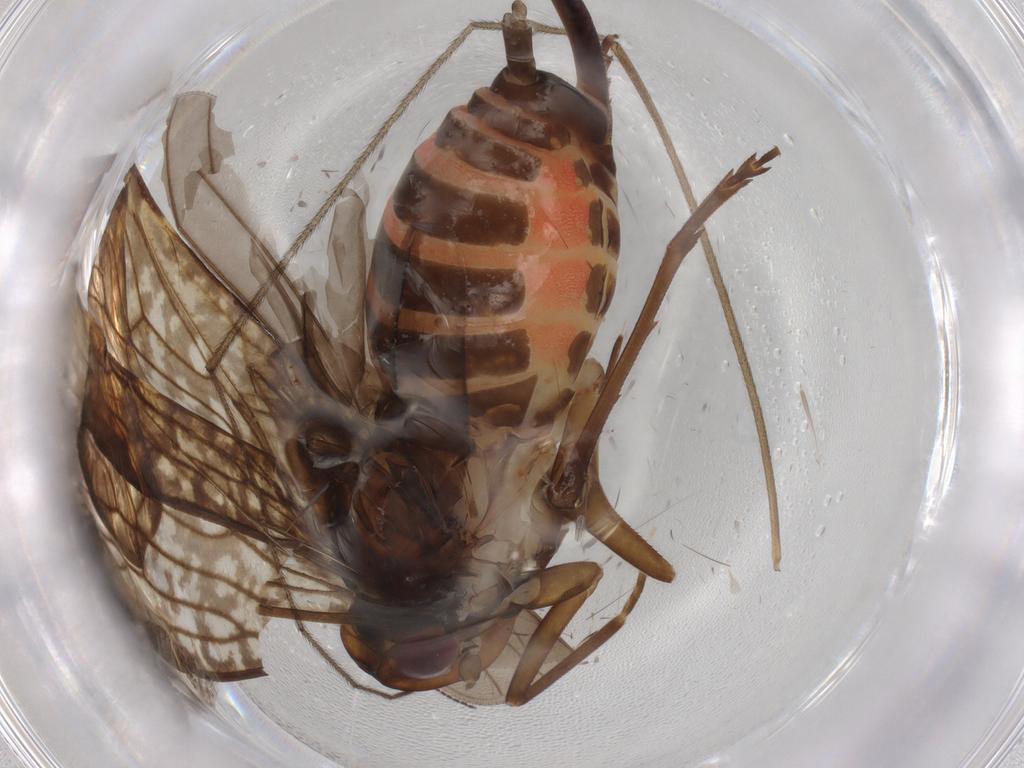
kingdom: Animalia
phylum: Arthropoda
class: Insecta
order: Hemiptera
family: Cixiidae
